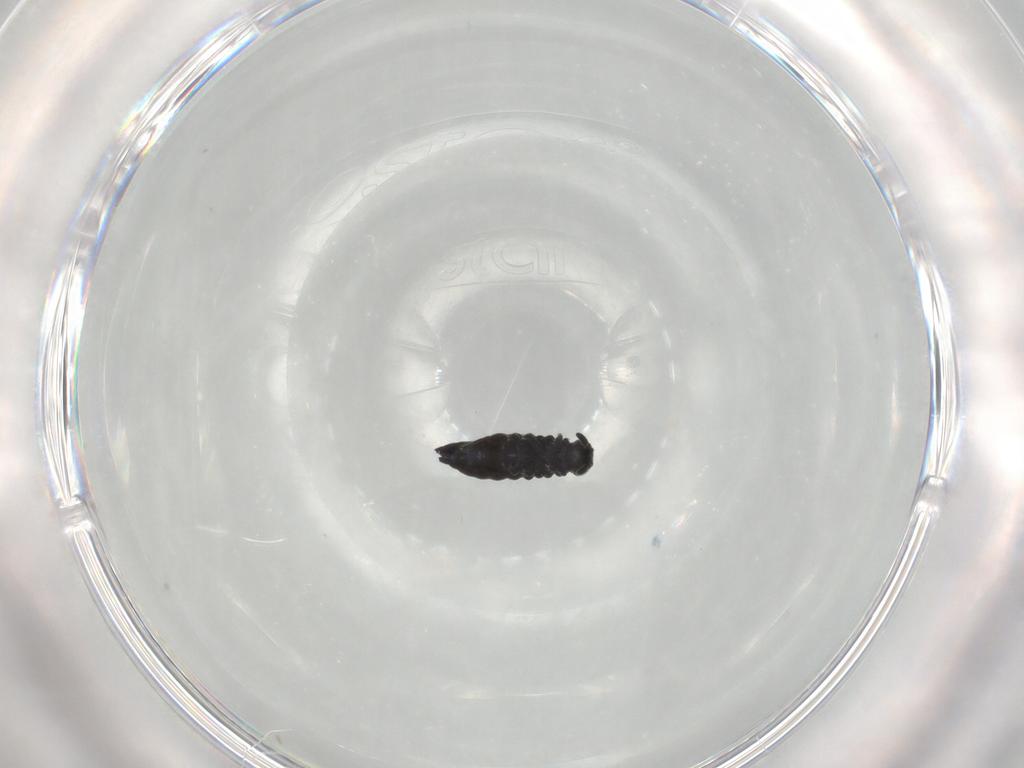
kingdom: Animalia
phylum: Arthropoda
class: Collembola
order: Poduromorpha
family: Hypogastruridae
